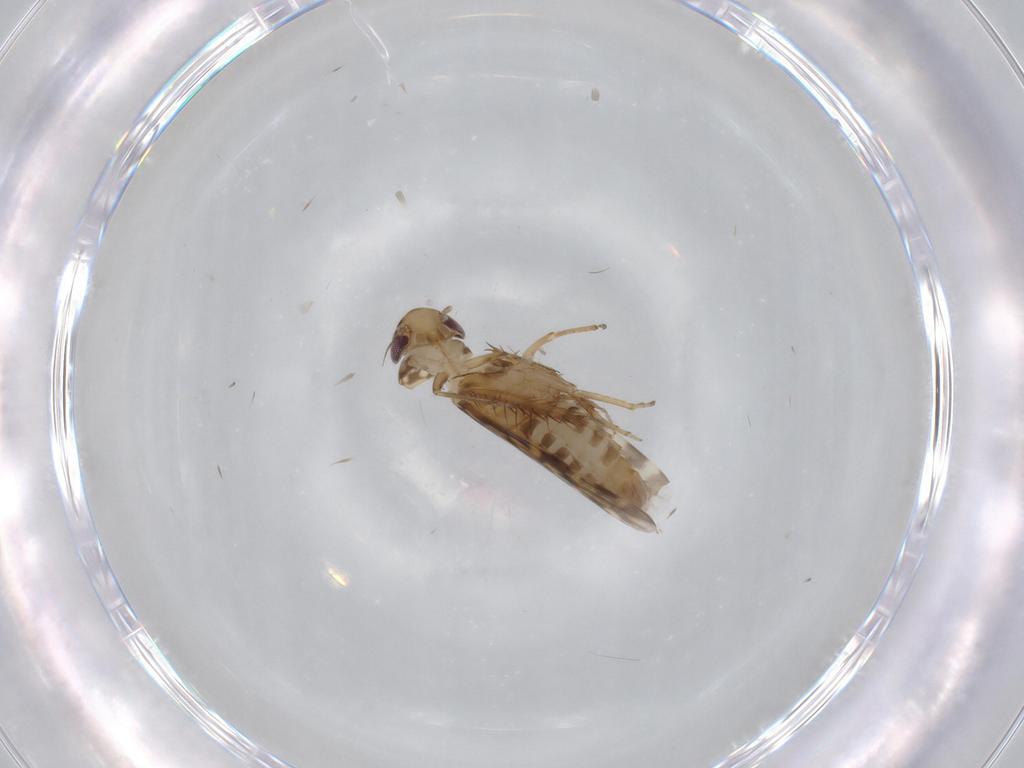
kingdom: Animalia
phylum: Arthropoda
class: Insecta
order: Hemiptera
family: Cicadellidae
